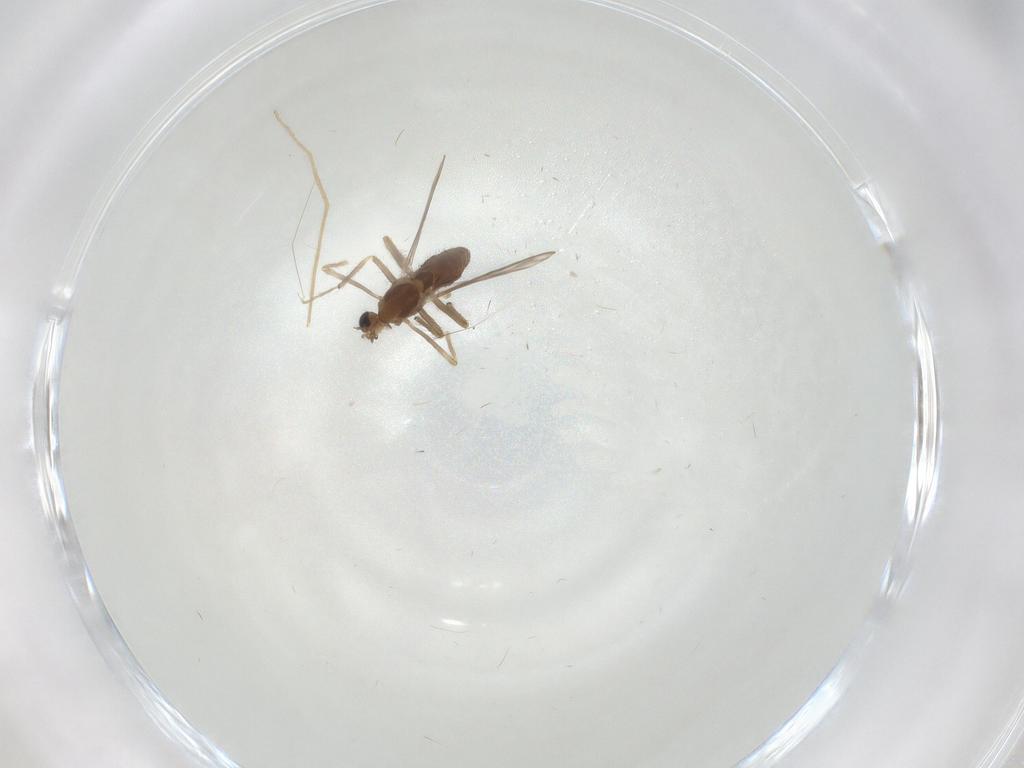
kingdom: Animalia
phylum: Arthropoda
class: Insecta
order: Diptera
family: Chironomidae
